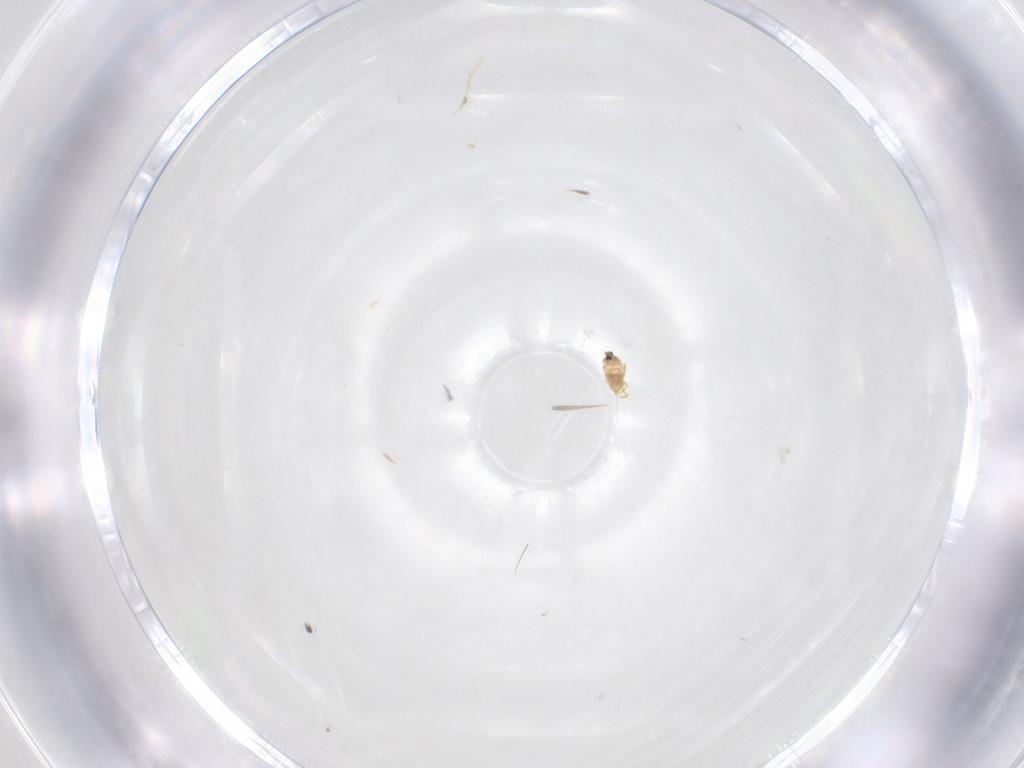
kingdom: Animalia
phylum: Arthropoda
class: Insecta
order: Hemiptera
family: Diaspididae
